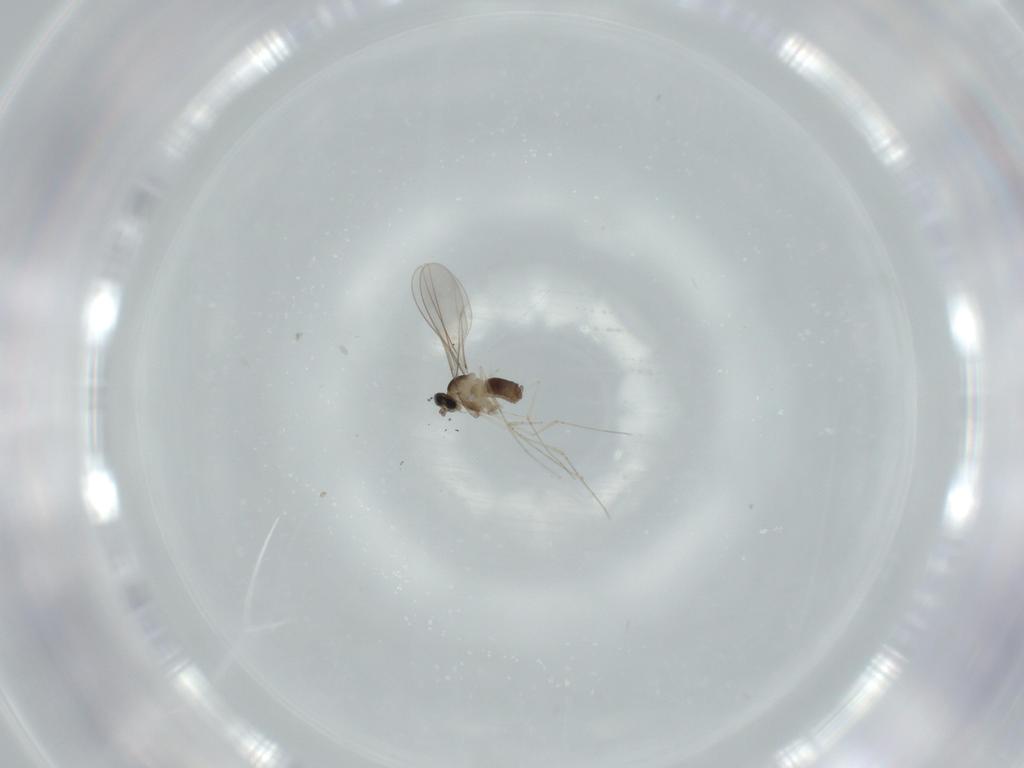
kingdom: Animalia
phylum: Arthropoda
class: Insecta
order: Diptera
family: Cecidomyiidae
